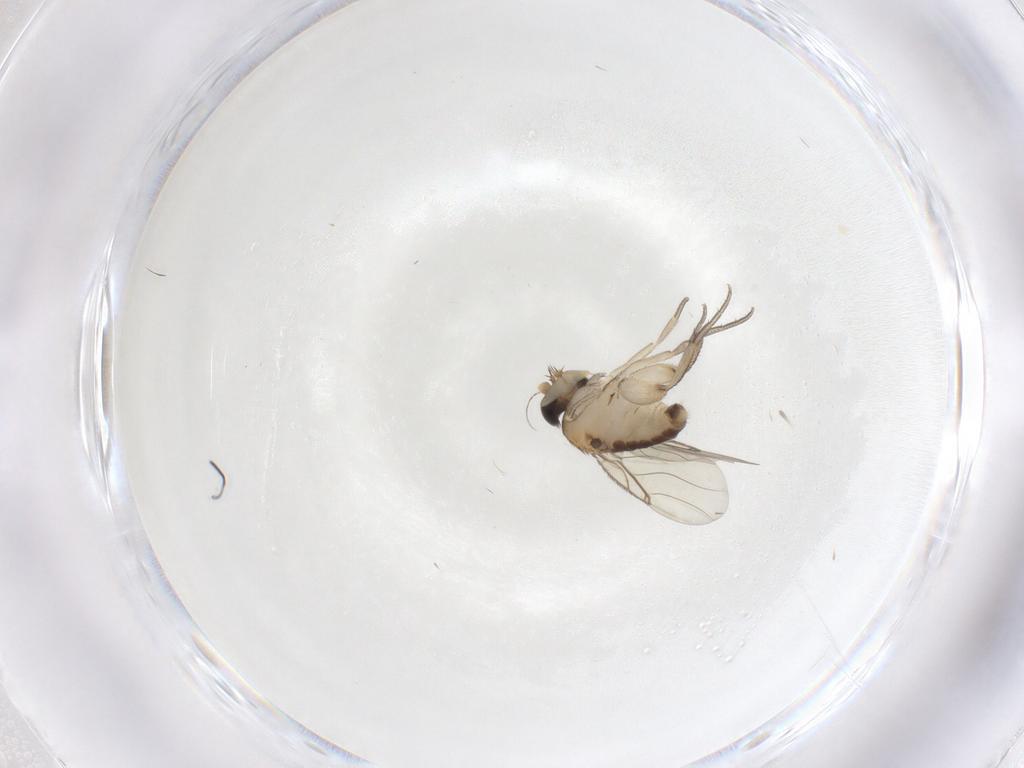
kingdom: Animalia
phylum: Arthropoda
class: Insecta
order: Diptera
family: Phoridae
